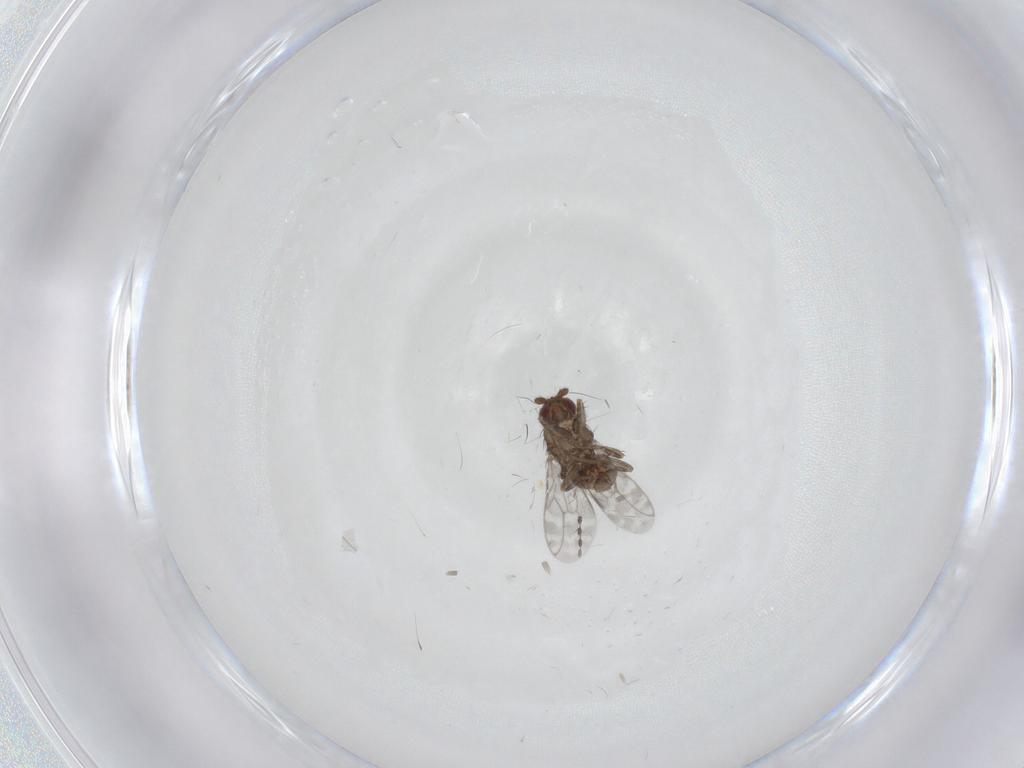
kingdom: Animalia
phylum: Arthropoda
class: Insecta
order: Diptera
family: Sphaeroceridae
